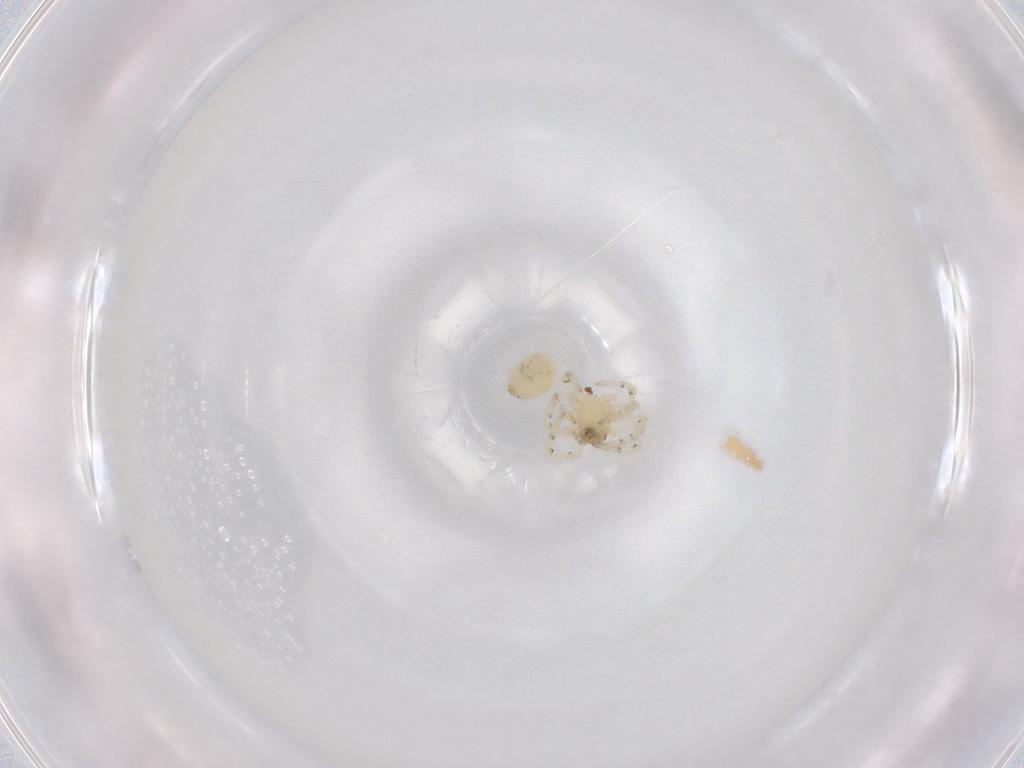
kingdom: Animalia
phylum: Arthropoda
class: Arachnida
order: Araneae
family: Theridiidae
